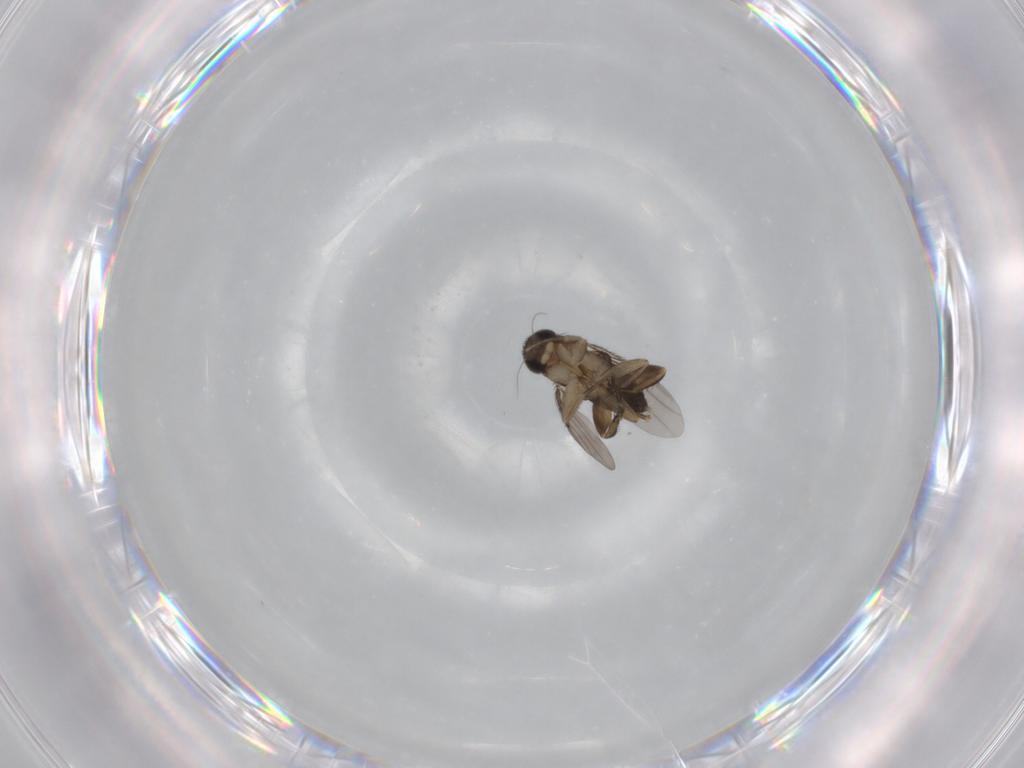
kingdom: Animalia
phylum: Arthropoda
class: Insecta
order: Diptera
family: Phoridae
